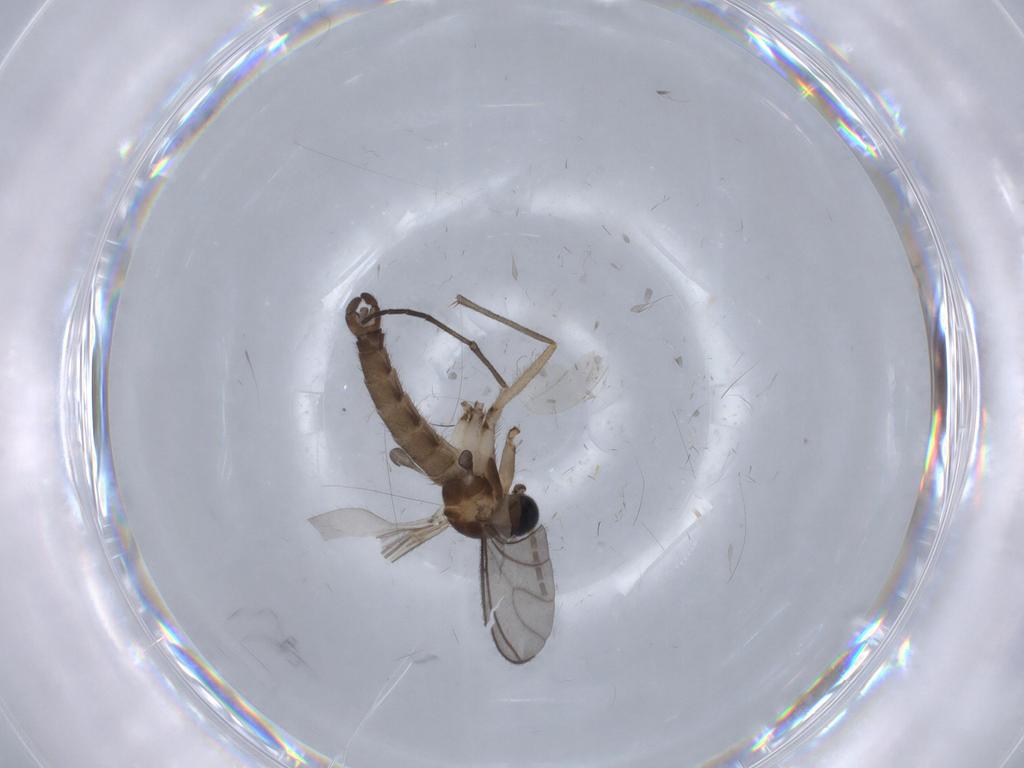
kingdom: Animalia
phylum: Arthropoda
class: Insecta
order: Diptera
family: Sciaridae
